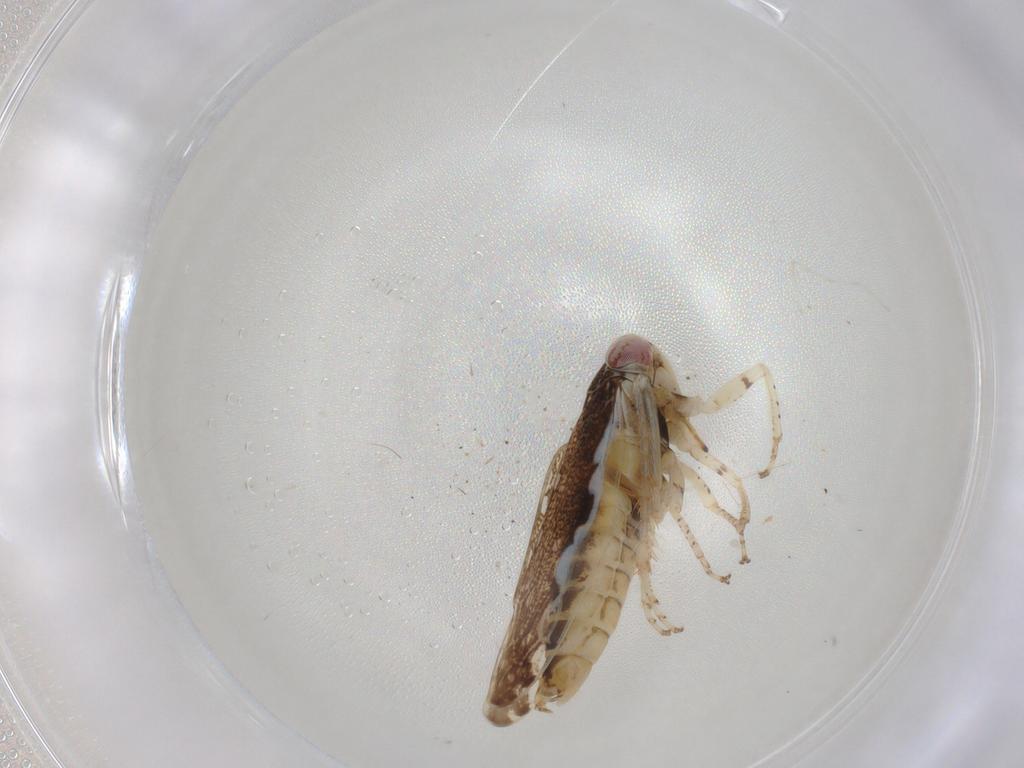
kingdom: Animalia
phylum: Arthropoda
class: Insecta
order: Hemiptera
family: Cicadellidae
